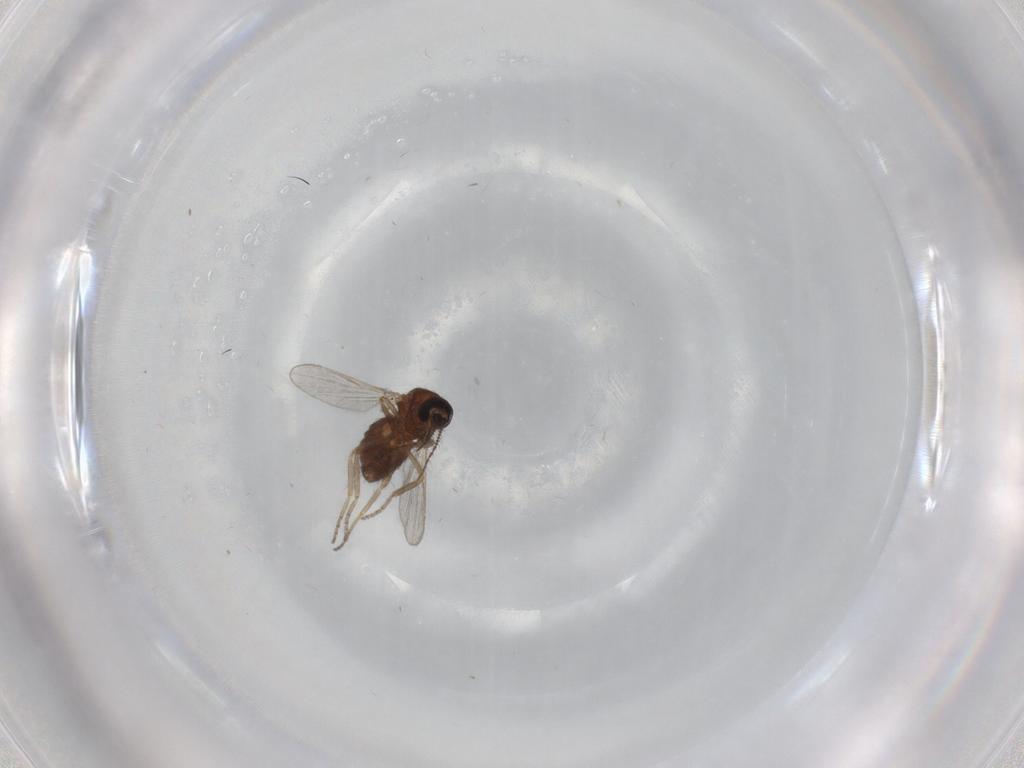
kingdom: Animalia
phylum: Arthropoda
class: Insecta
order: Diptera
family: Ceratopogonidae
